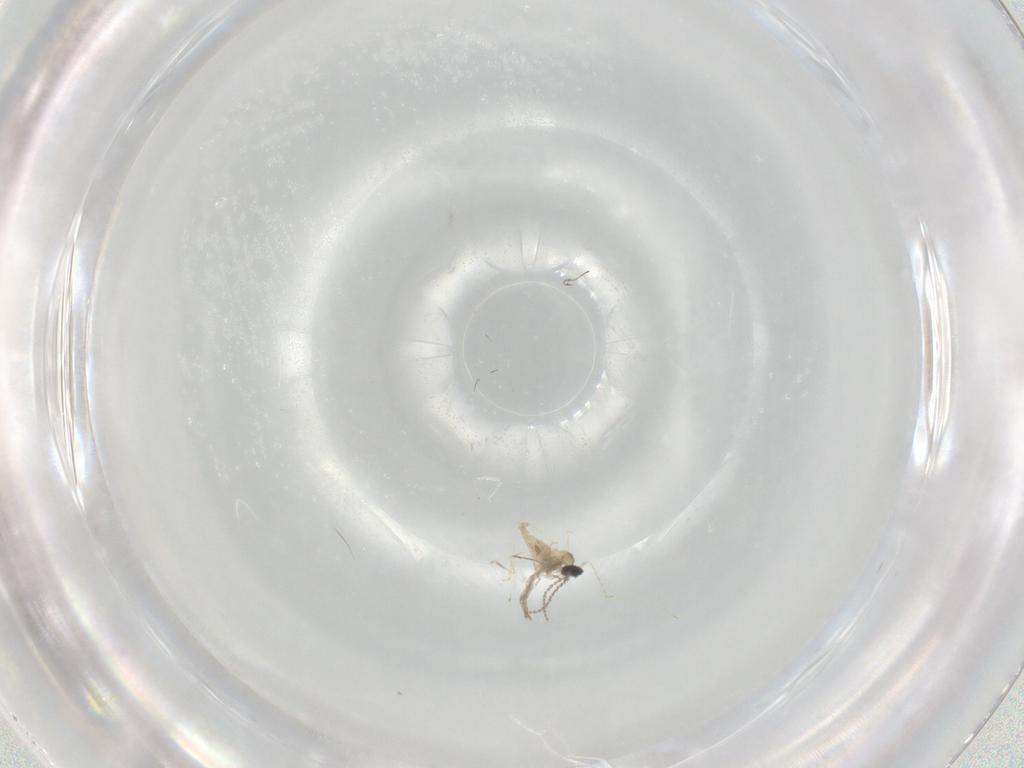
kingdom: Animalia
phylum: Arthropoda
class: Insecta
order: Diptera
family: Cecidomyiidae
